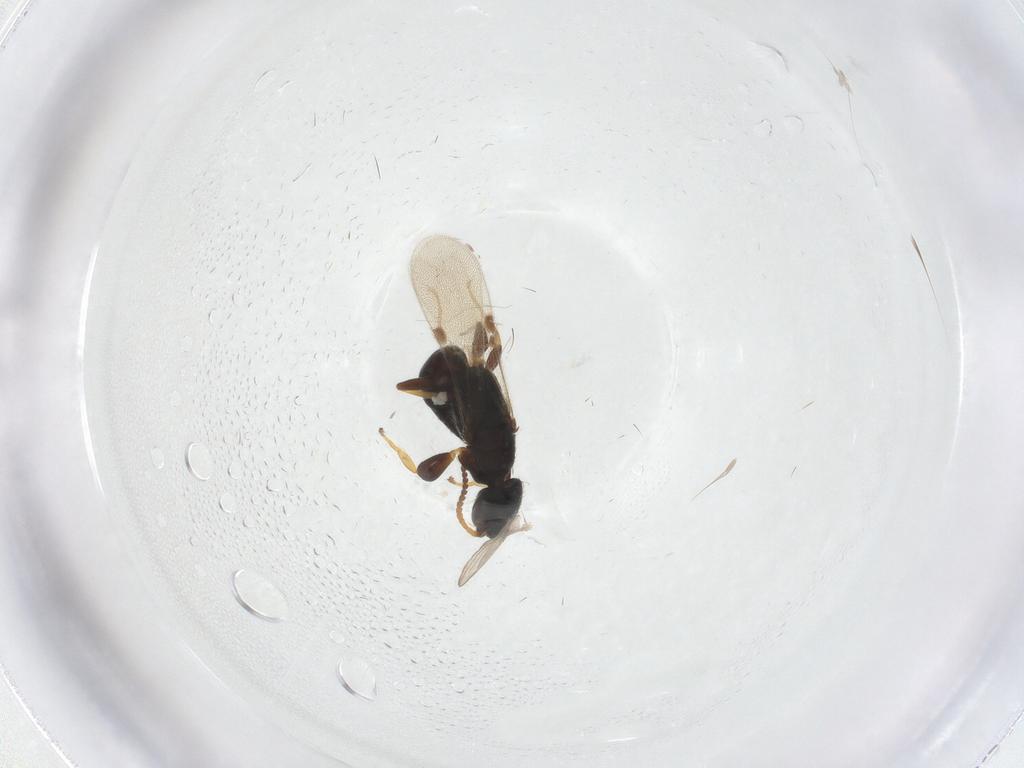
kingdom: Animalia
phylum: Arthropoda
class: Insecta
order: Hymenoptera
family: Bethylidae
